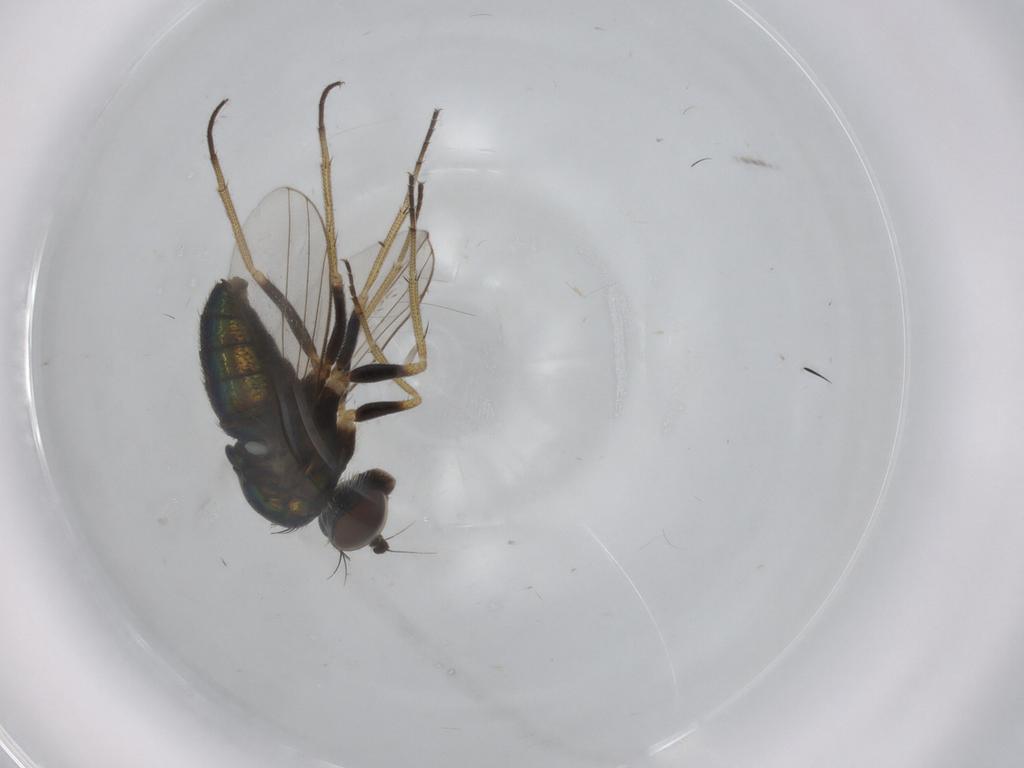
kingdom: Animalia
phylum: Arthropoda
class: Insecta
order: Diptera
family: Dolichopodidae
